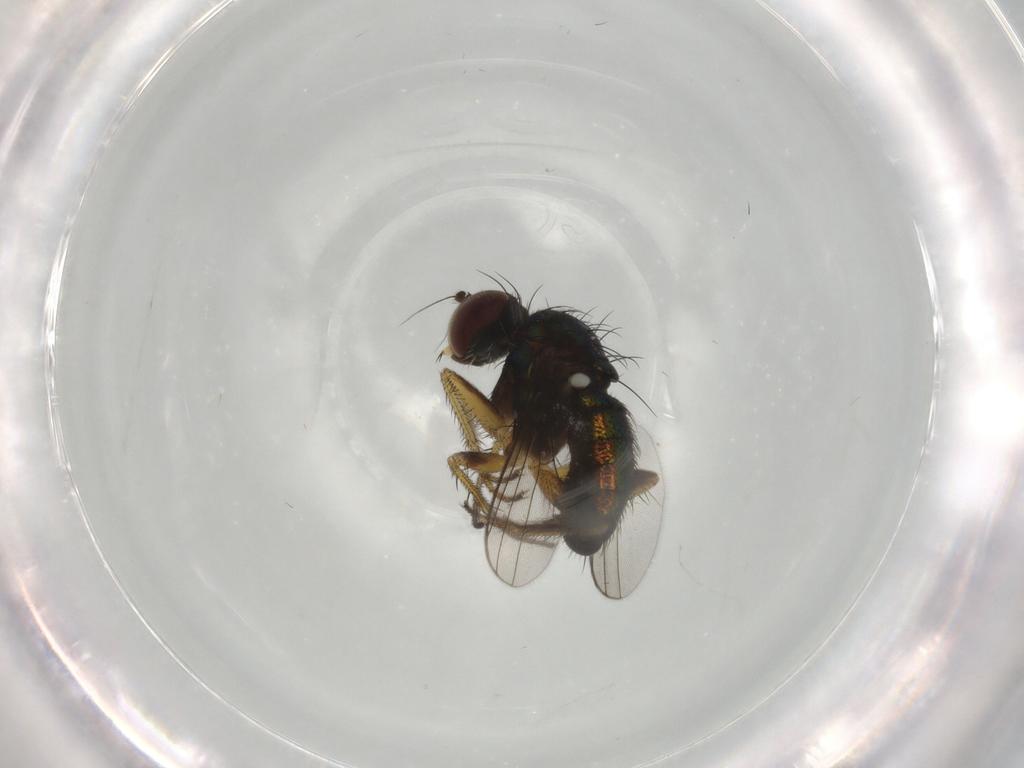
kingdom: Animalia
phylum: Arthropoda
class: Insecta
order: Diptera
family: Dolichopodidae
